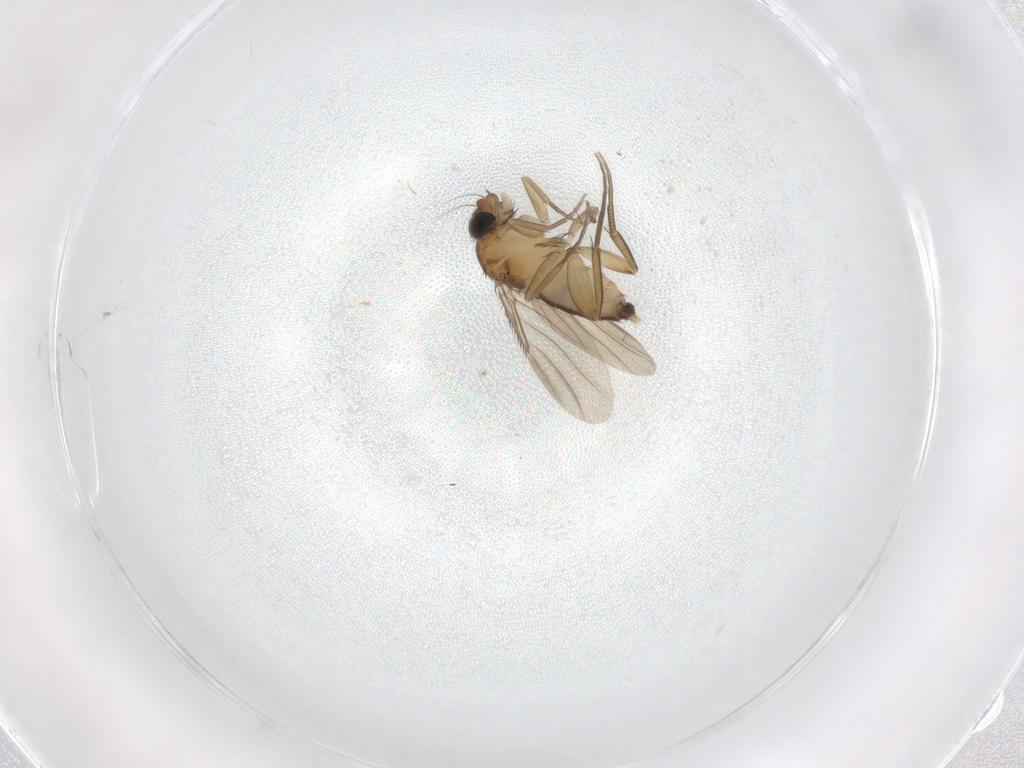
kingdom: Animalia
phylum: Arthropoda
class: Insecta
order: Diptera
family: Phoridae
